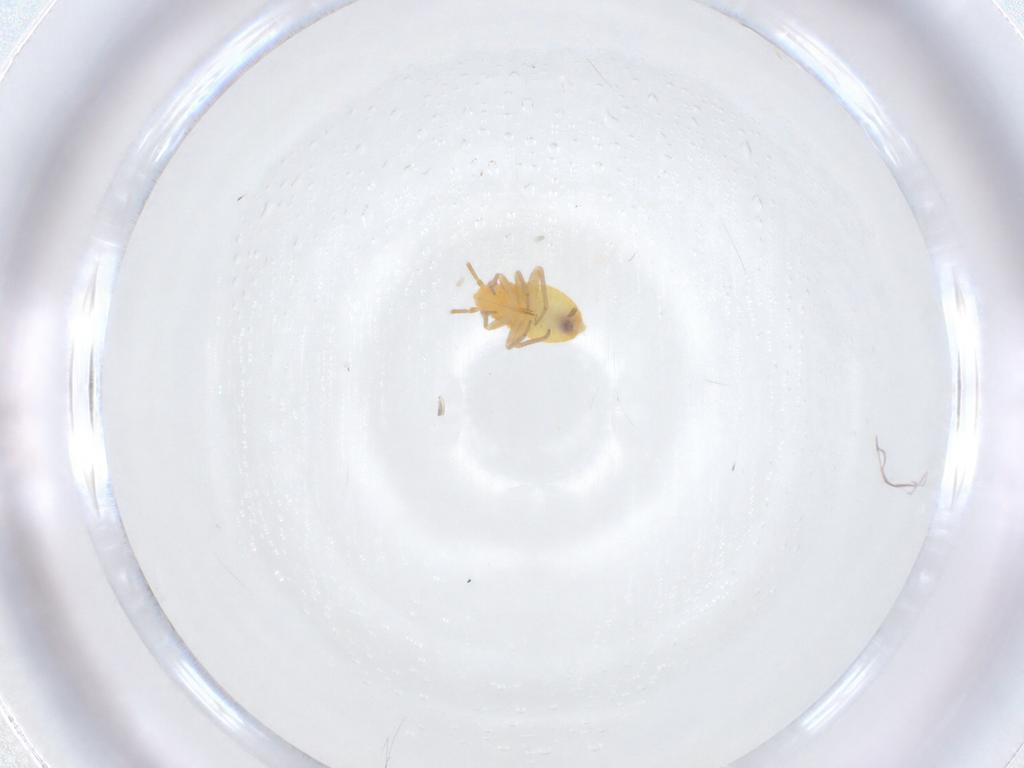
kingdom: Animalia
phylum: Arthropoda
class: Insecta
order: Hemiptera
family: Miridae
